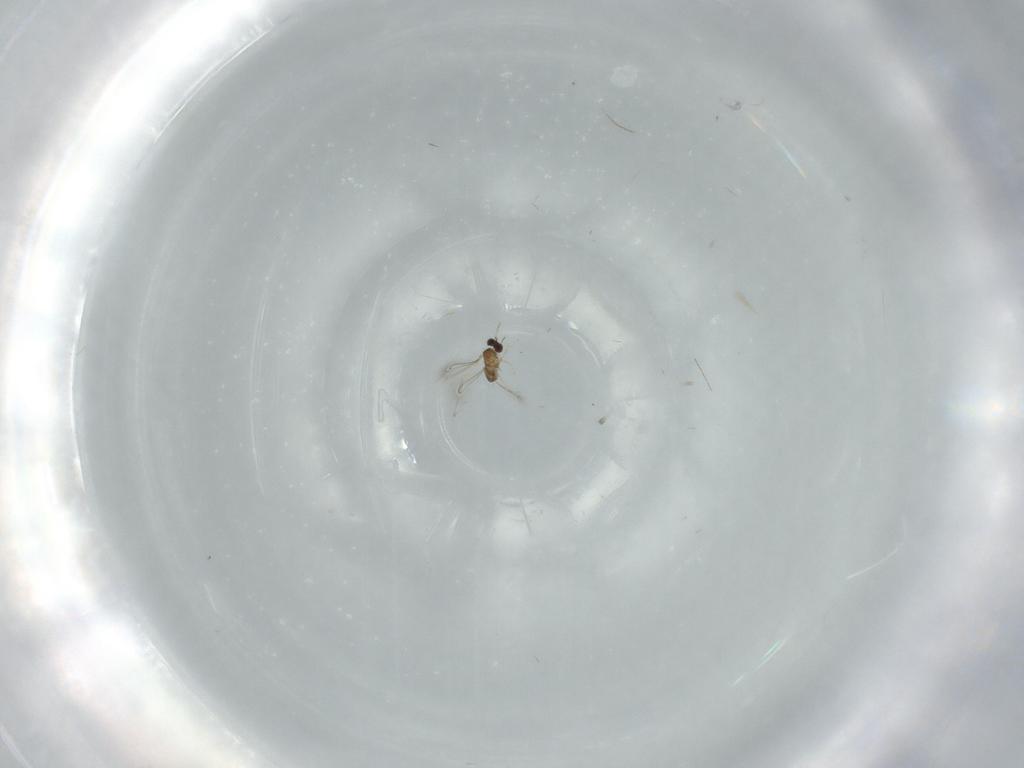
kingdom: Animalia
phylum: Arthropoda
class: Insecta
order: Hymenoptera
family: Mymaridae
